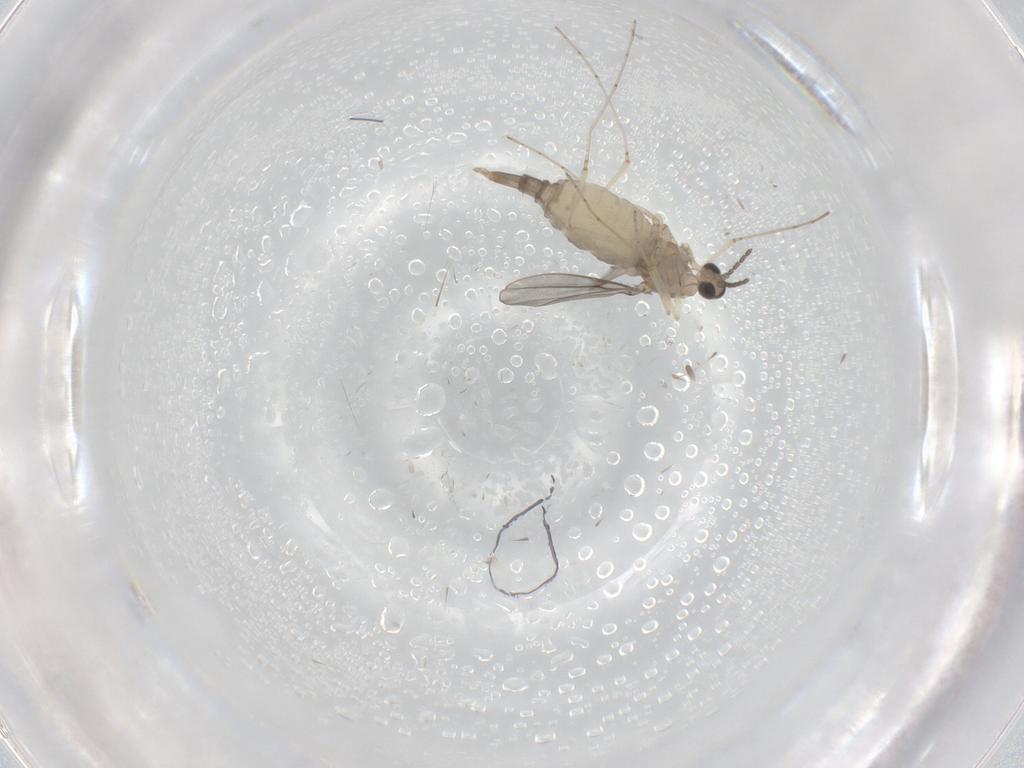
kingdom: Animalia
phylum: Arthropoda
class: Insecta
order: Diptera
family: Cecidomyiidae
